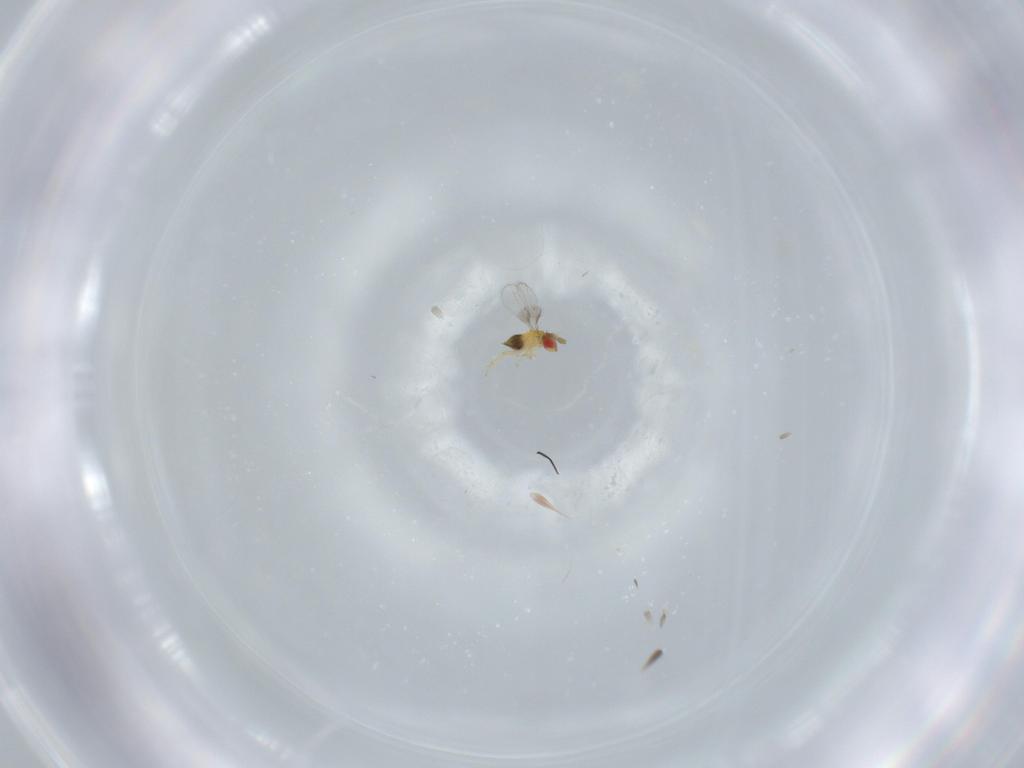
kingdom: Animalia
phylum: Arthropoda
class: Insecta
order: Hymenoptera
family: Trichogrammatidae
